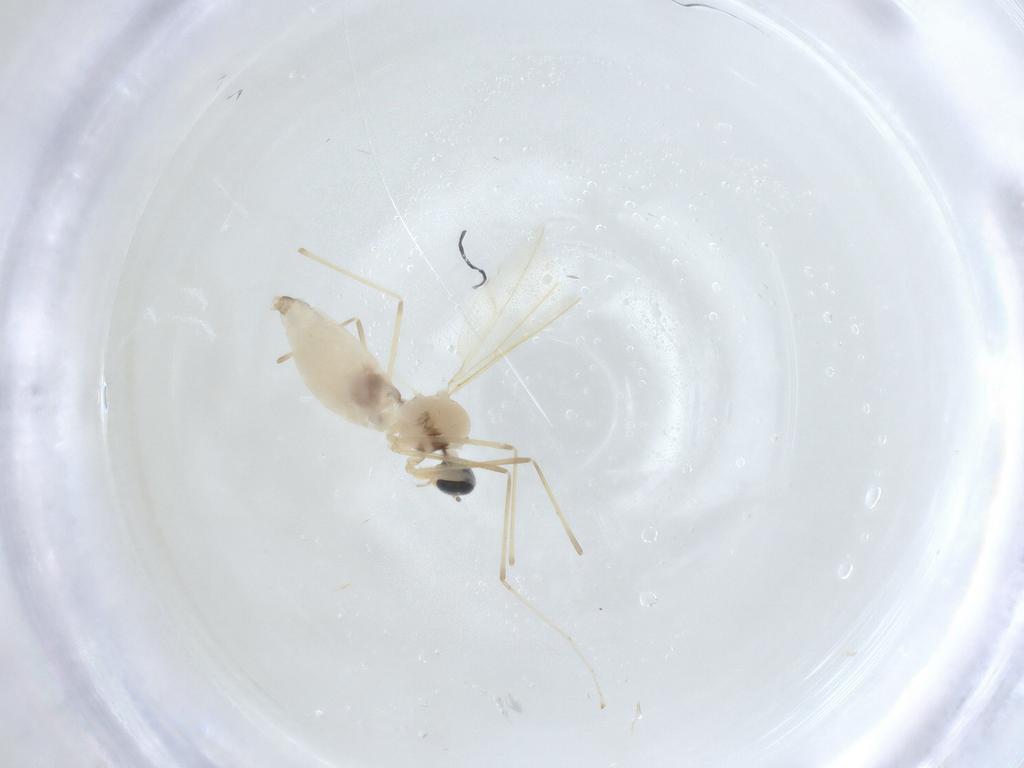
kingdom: Animalia
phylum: Arthropoda
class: Insecta
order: Diptera
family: Cecidomyiidae
